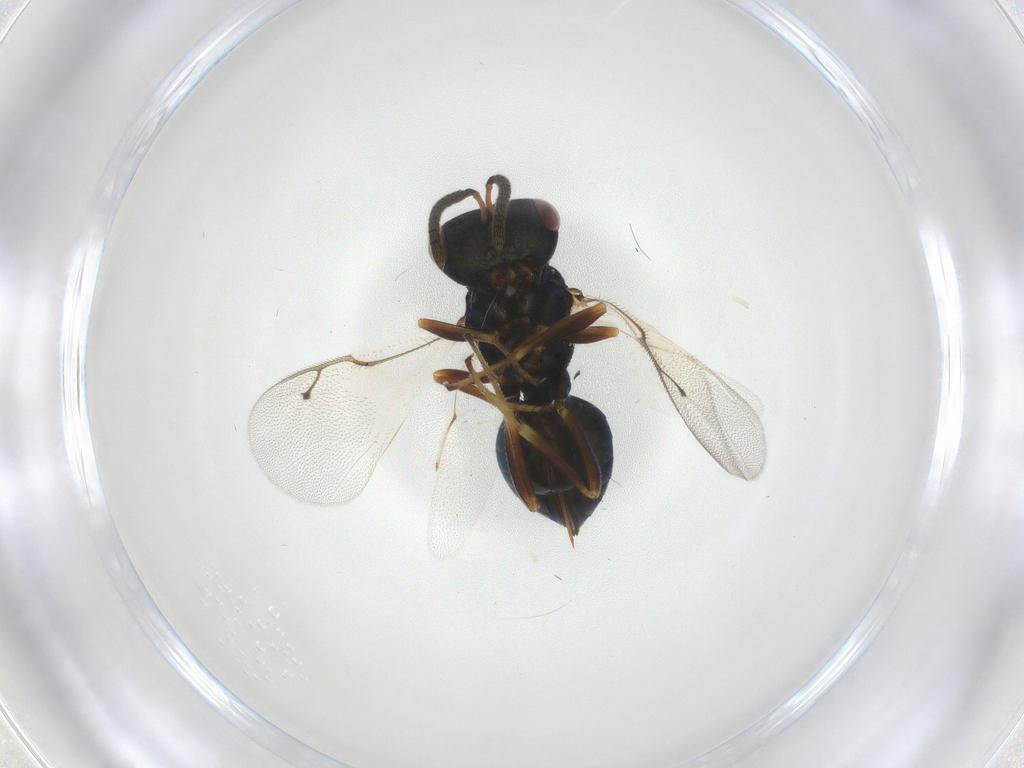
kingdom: Animalia
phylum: Arthropoda
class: Insecta
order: Hymenoptera
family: Pteromalidae
